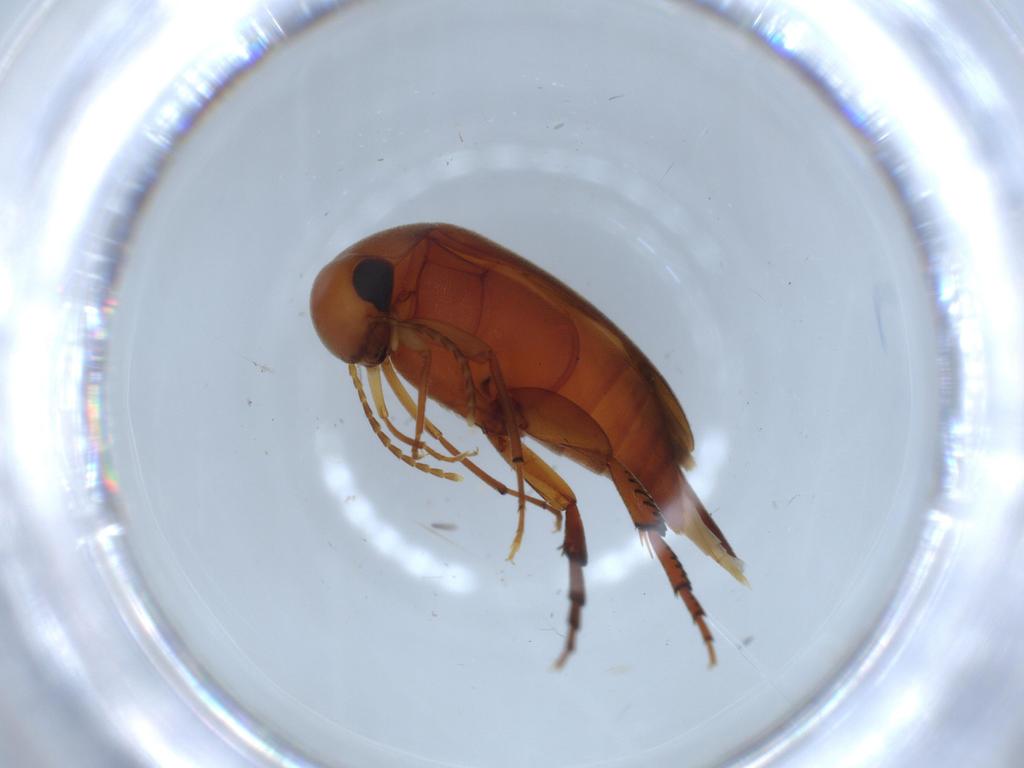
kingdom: Animalia
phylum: Arthropoda
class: Insecta
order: Coleoptera
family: Mordellidae
